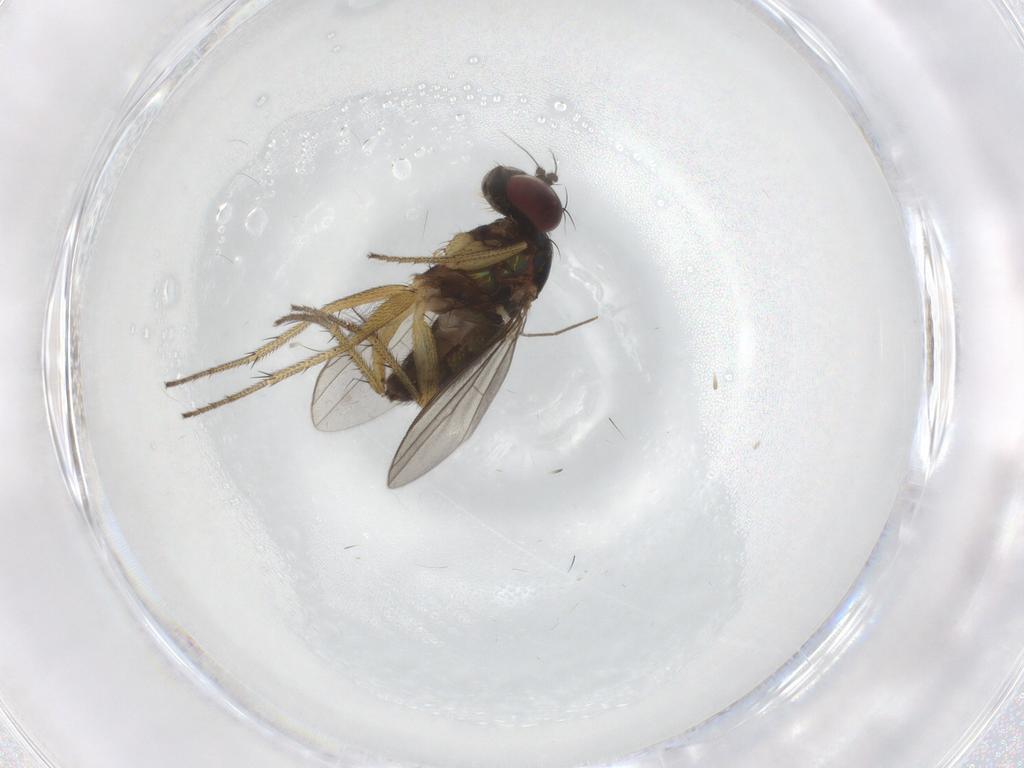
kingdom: Animalia
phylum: Arthropoda
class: Insecta
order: Diptera
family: Dolichopodidae
